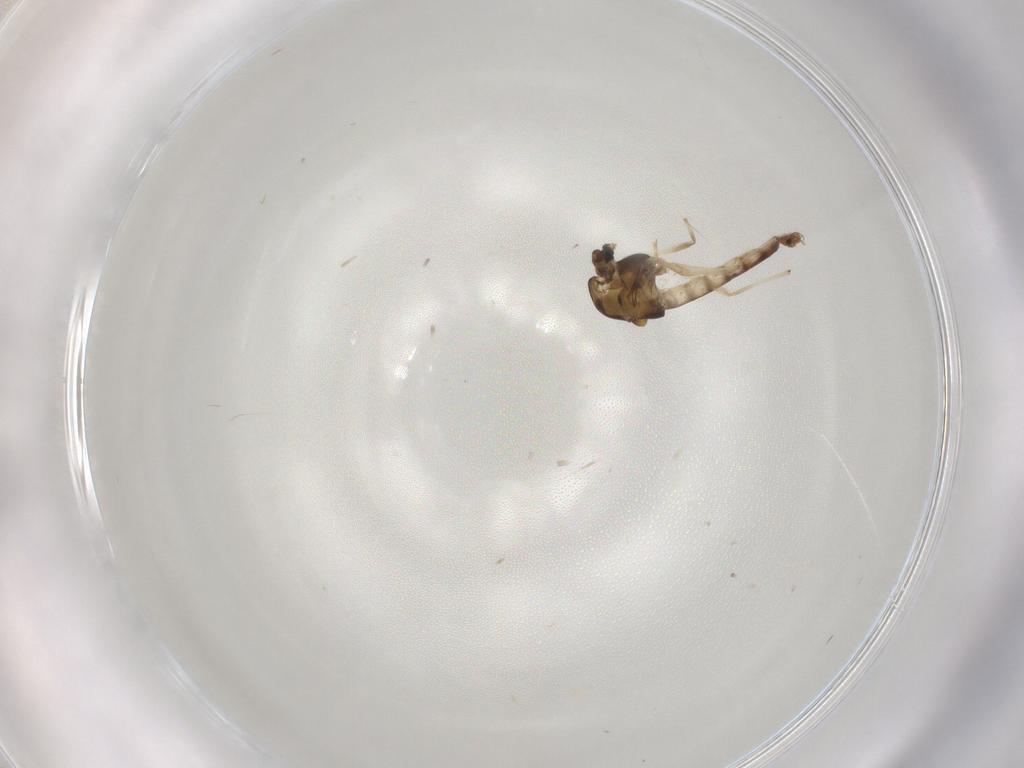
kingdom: Animalia
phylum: Arthropoda
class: Insecta
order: Diptera
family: Chironomidae
